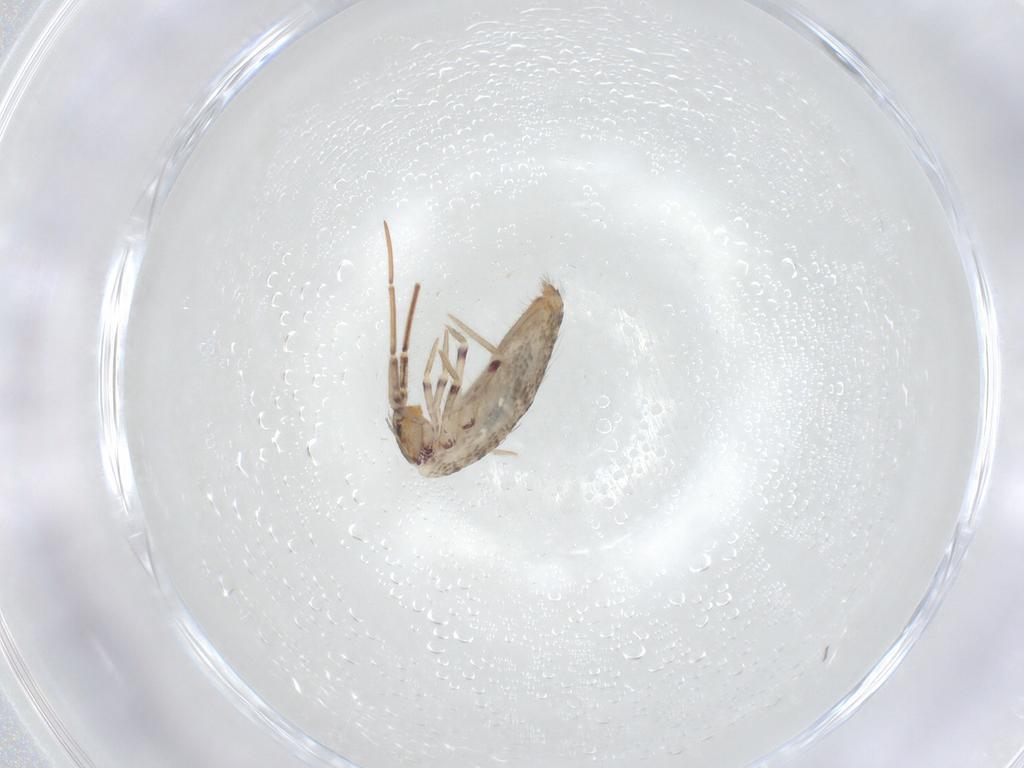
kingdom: Animalia
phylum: Arthropoda
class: Collembola
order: Entomobryomorpha
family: Entomobryidae
